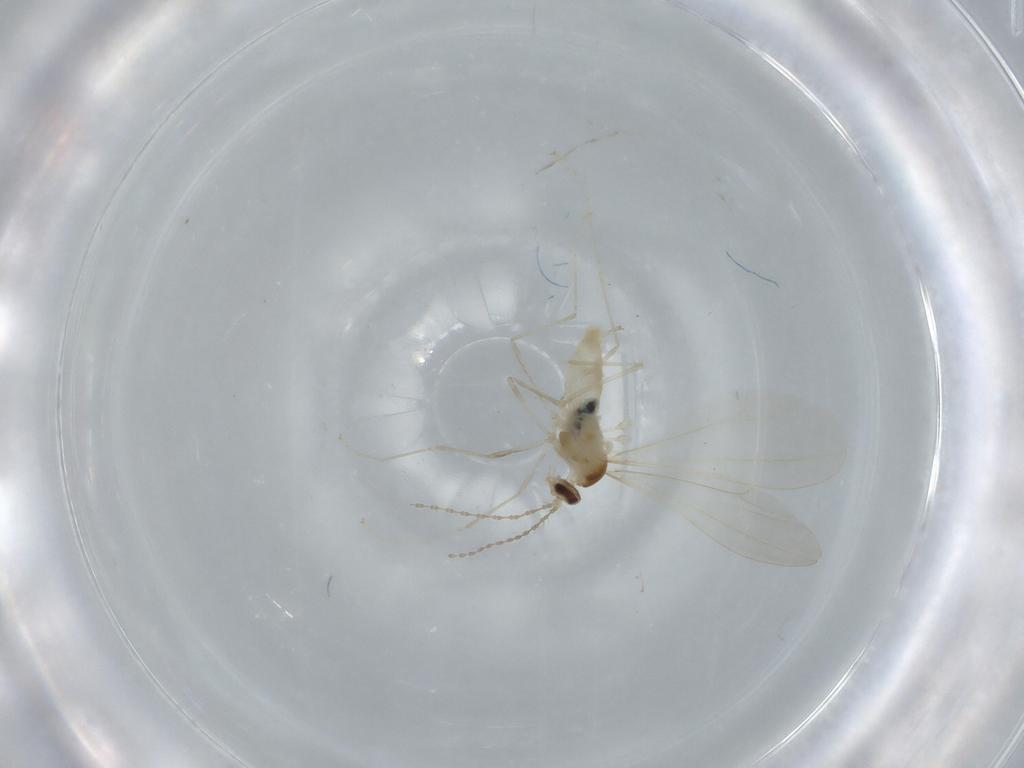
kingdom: Animalia
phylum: Arthropoda
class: Insecta
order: Diptera
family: Cecidomyiidae
